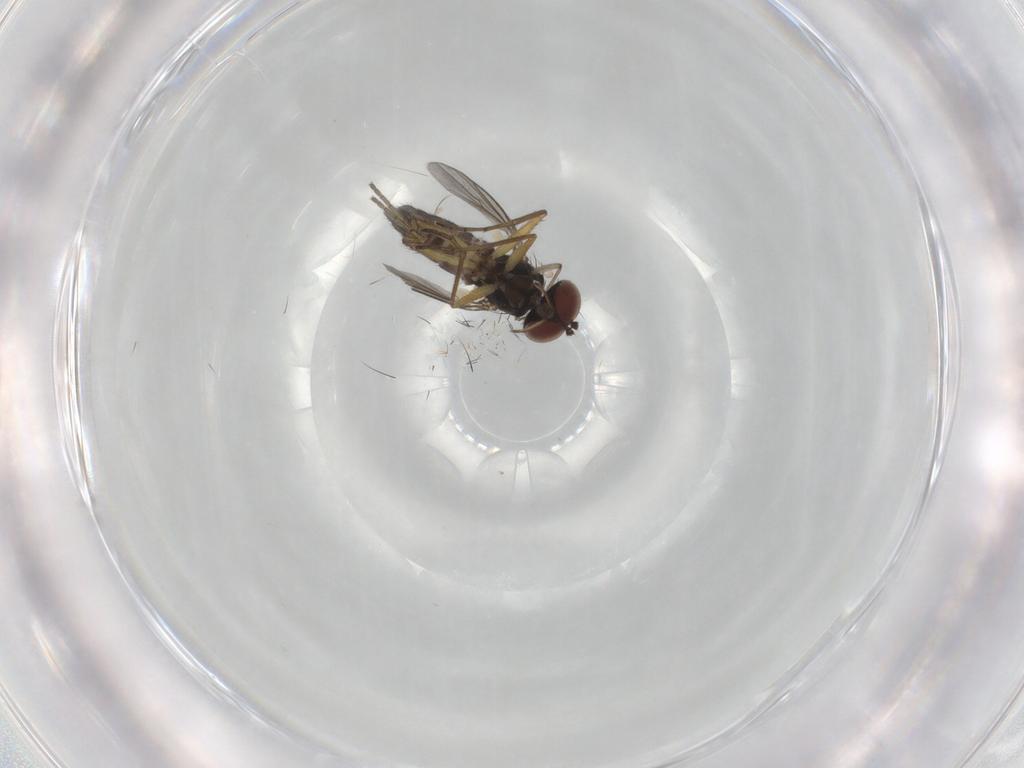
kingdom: Animalia
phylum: Arthropoda
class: Insecta
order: Diptera
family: Dolichopodidae
